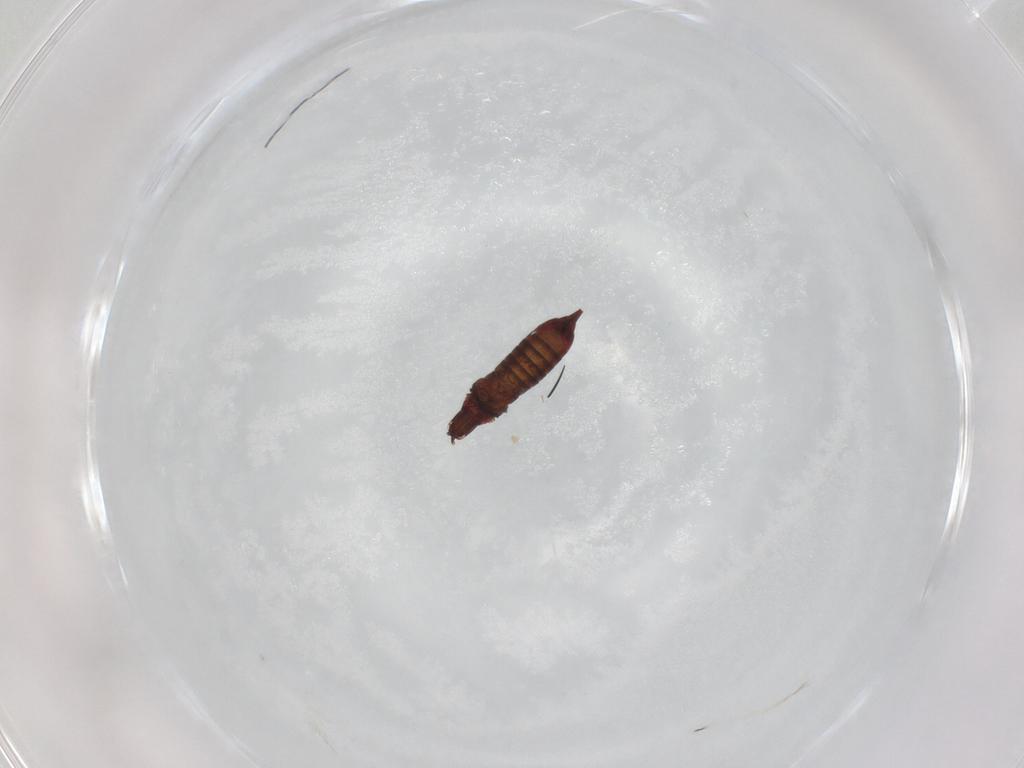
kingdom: Animalia
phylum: Arthropoda
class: Insecta
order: Thysanoptera
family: Phlaeothripidae
